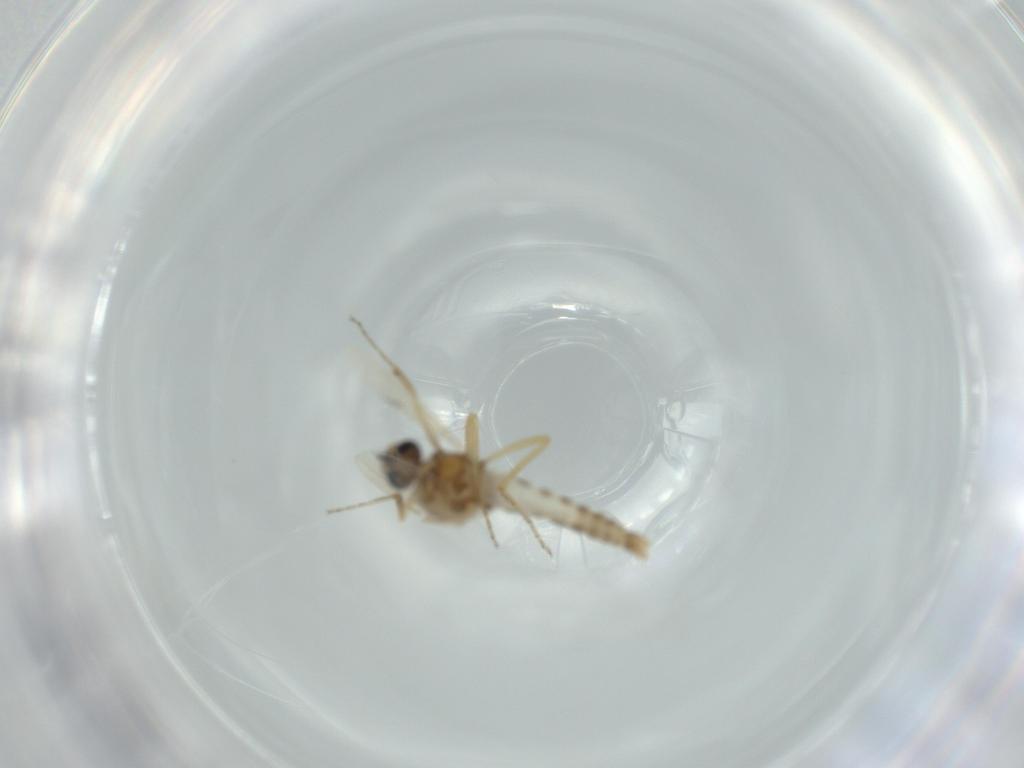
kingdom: Animalia
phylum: Arthropoda
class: Insecta
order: Diptera
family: Ceratopogonidae
